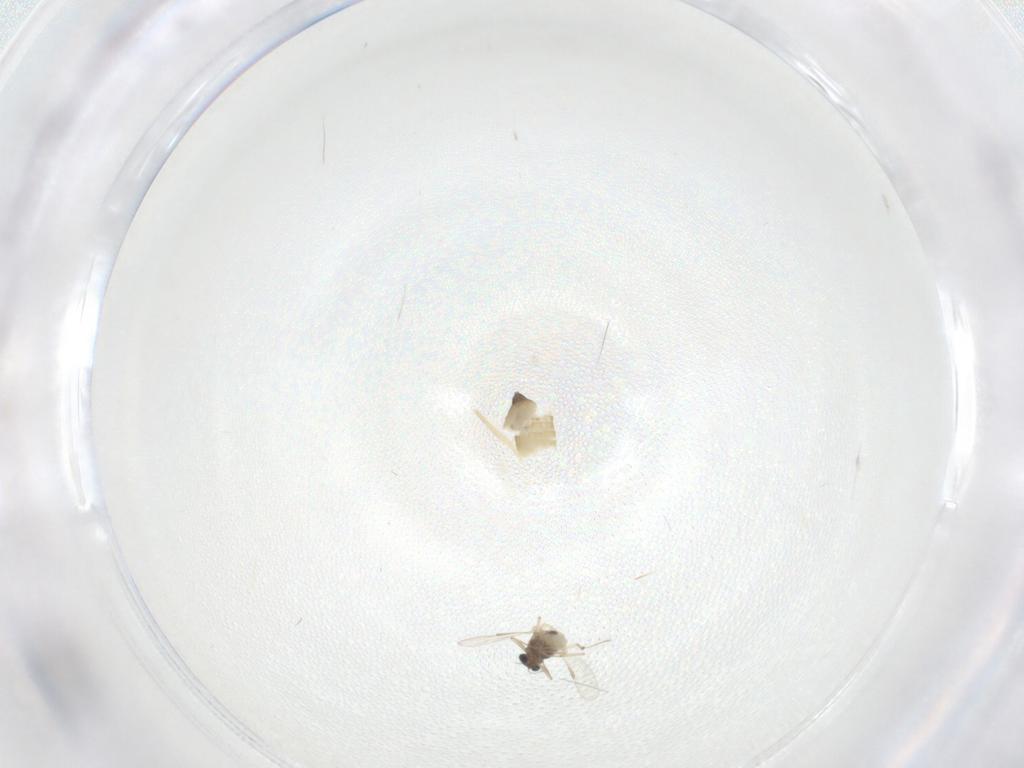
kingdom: Animalia
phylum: Arthropoda
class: Insecta
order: Diptera
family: Chironomidae
